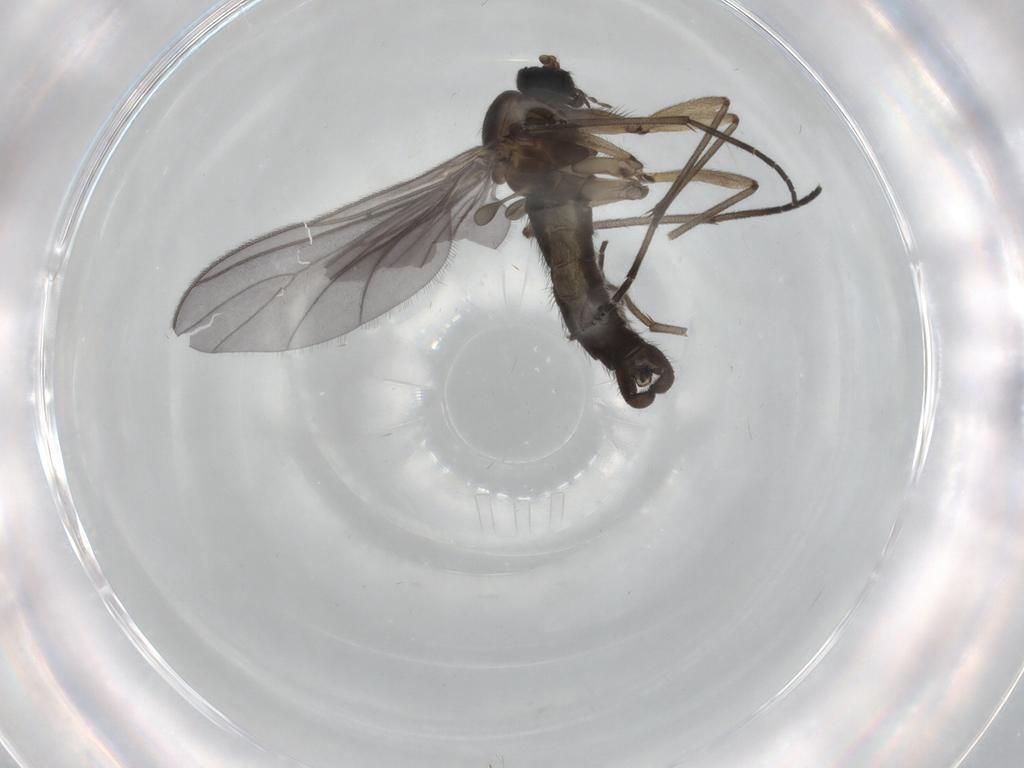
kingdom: Animalia
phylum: Arthropoda
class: Insecta
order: Diptera
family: Sciaridae
